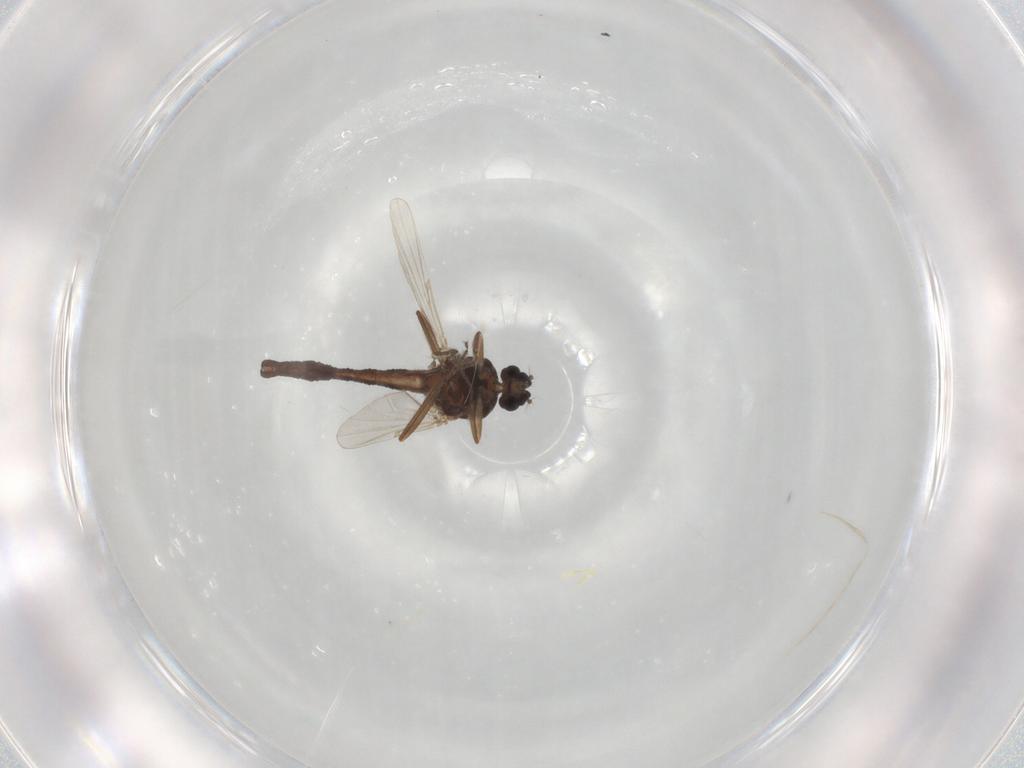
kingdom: Animalia
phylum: Arthropoda
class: Insecta
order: Diptera
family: Ceratopogonidae
